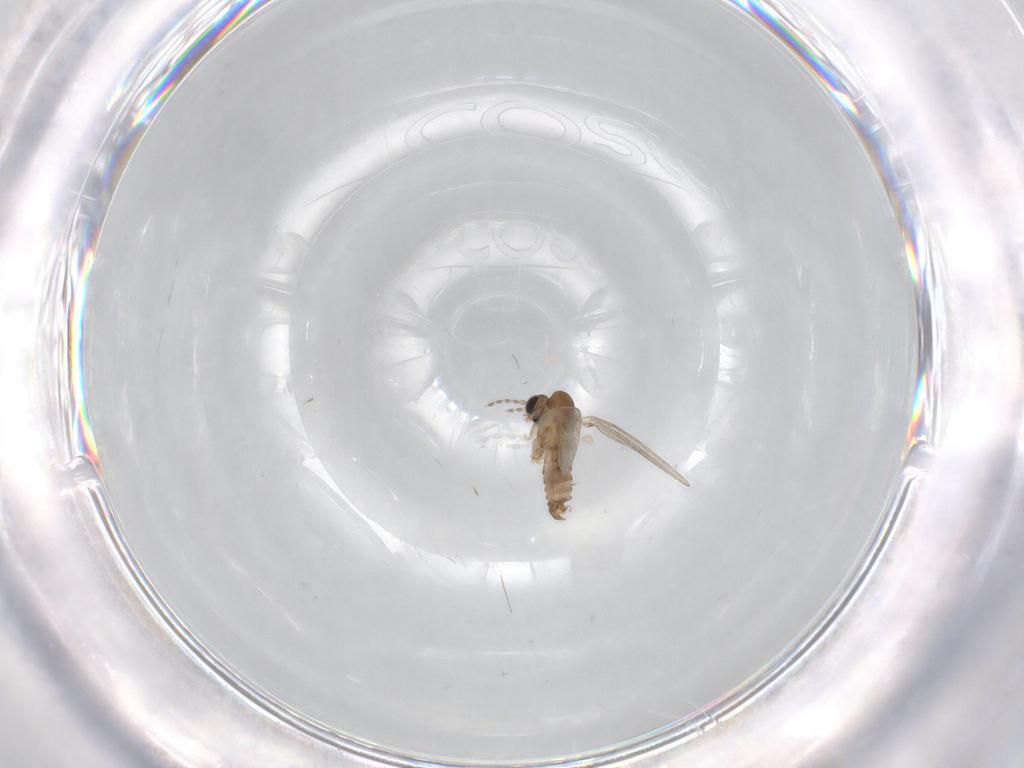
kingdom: Animalia
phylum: Arthropoda
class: Insecta
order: Diptera
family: Psychodidae
